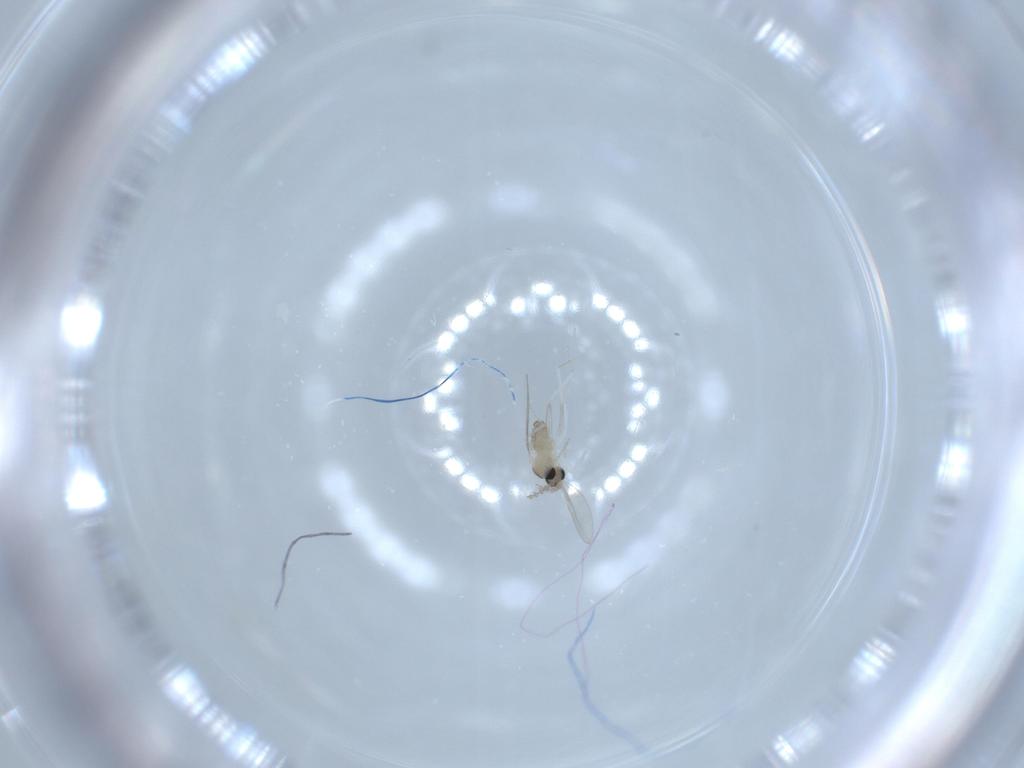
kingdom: Animalia
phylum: Arthropoda
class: Insecta
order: Diptera
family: Cecidomyiidae
